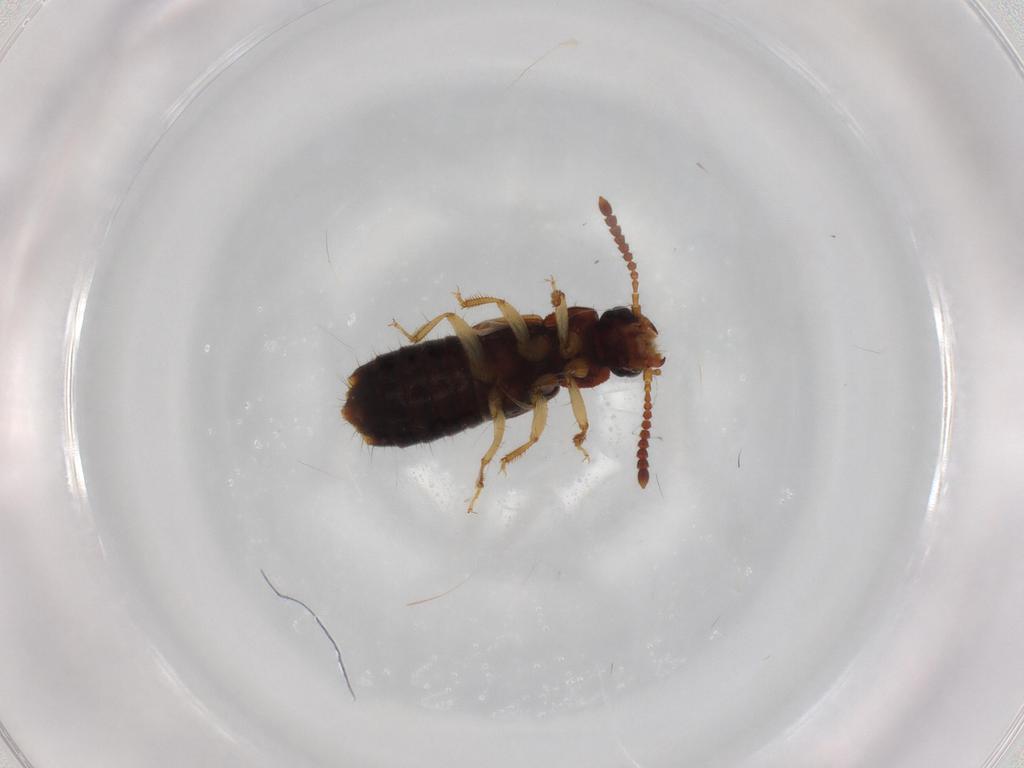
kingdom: Animalia
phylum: Arthropoda
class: Insecta
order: Coleoptera
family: Staphylinidae
